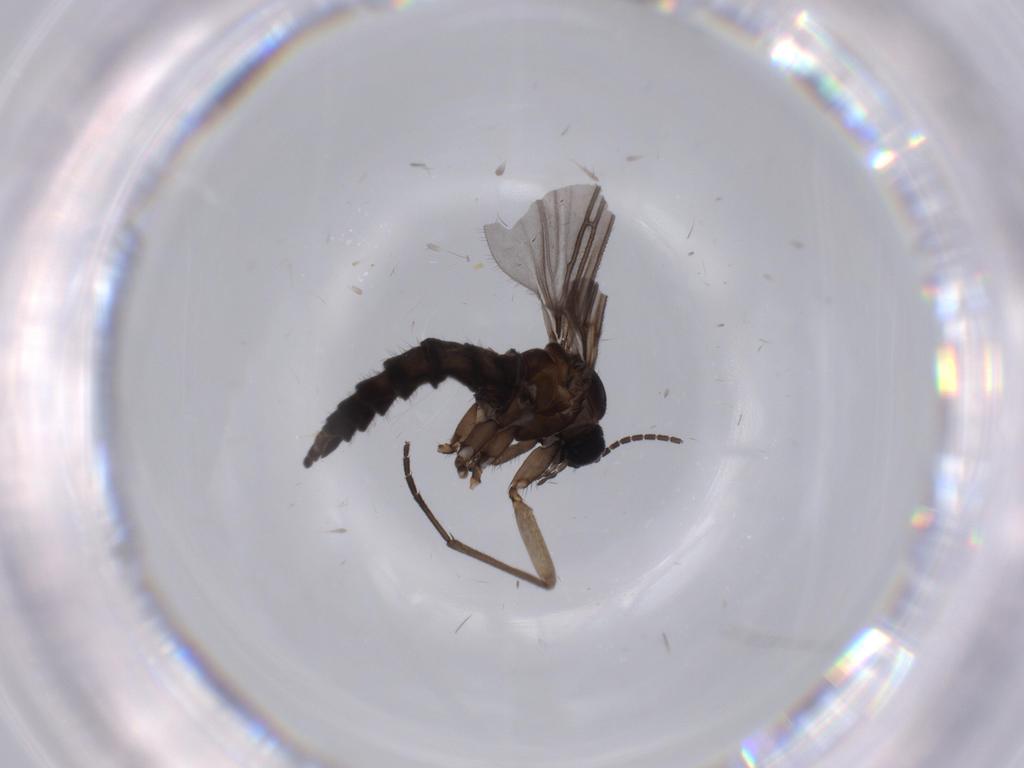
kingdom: Animalia
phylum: Arthropoda
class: Insecta
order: Diptera
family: Sciaridae
